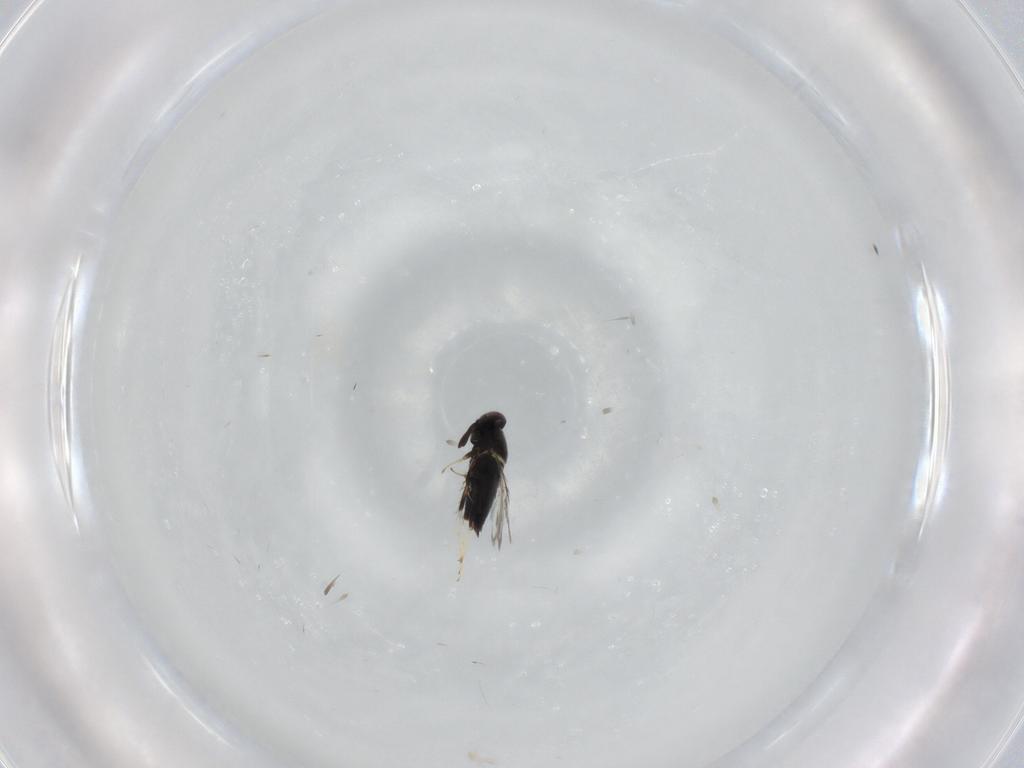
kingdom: Animalia
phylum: Arthropoda
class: Insecta
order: Hymenoptera
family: Signiphoridae
